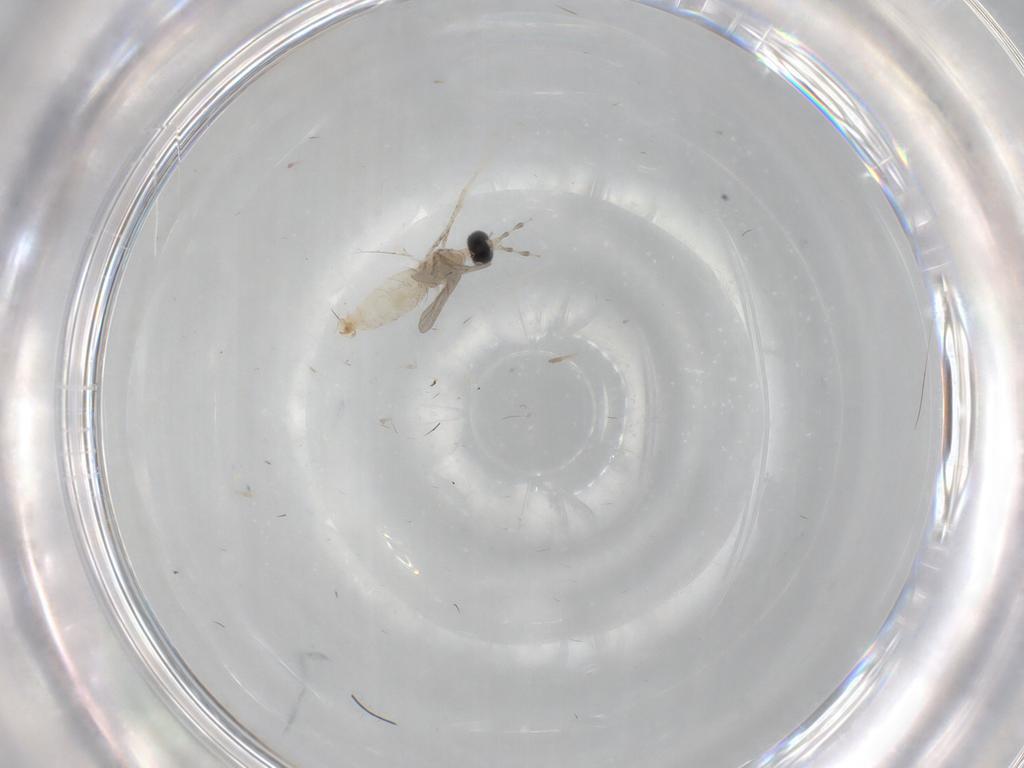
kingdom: Animalia
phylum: Arthropoda
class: Insecta
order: Diptera
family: Cecidomyiidae
